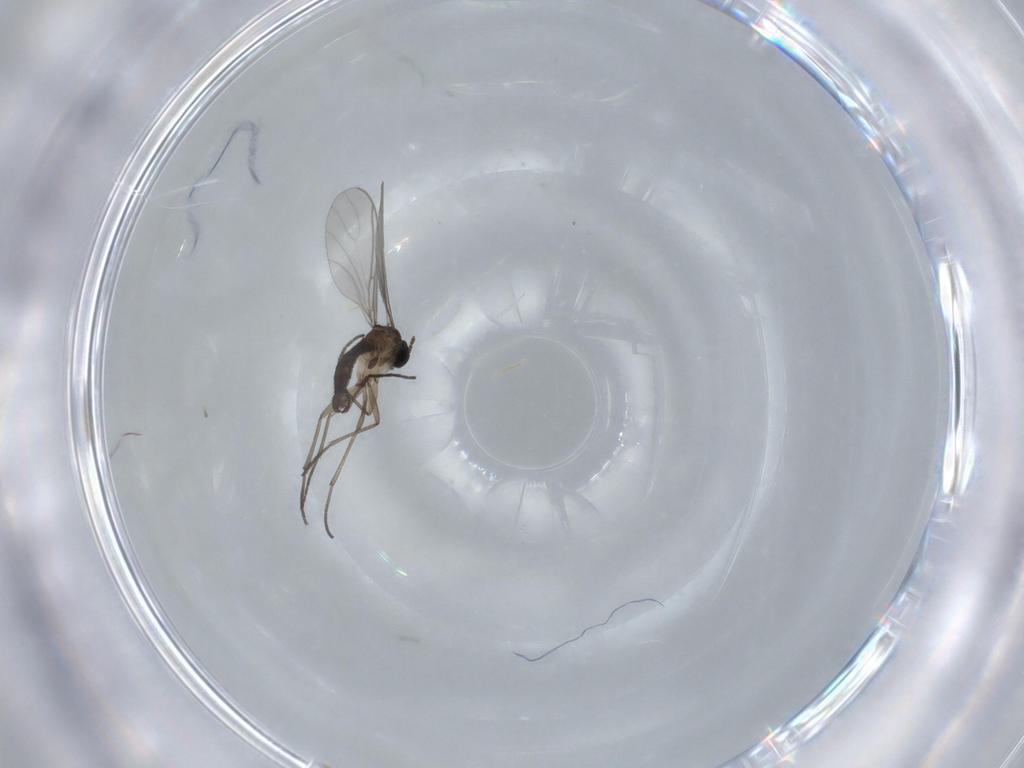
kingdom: Animalia
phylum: Arthropoda
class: Insecta
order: Diptera
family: Sciaridae
